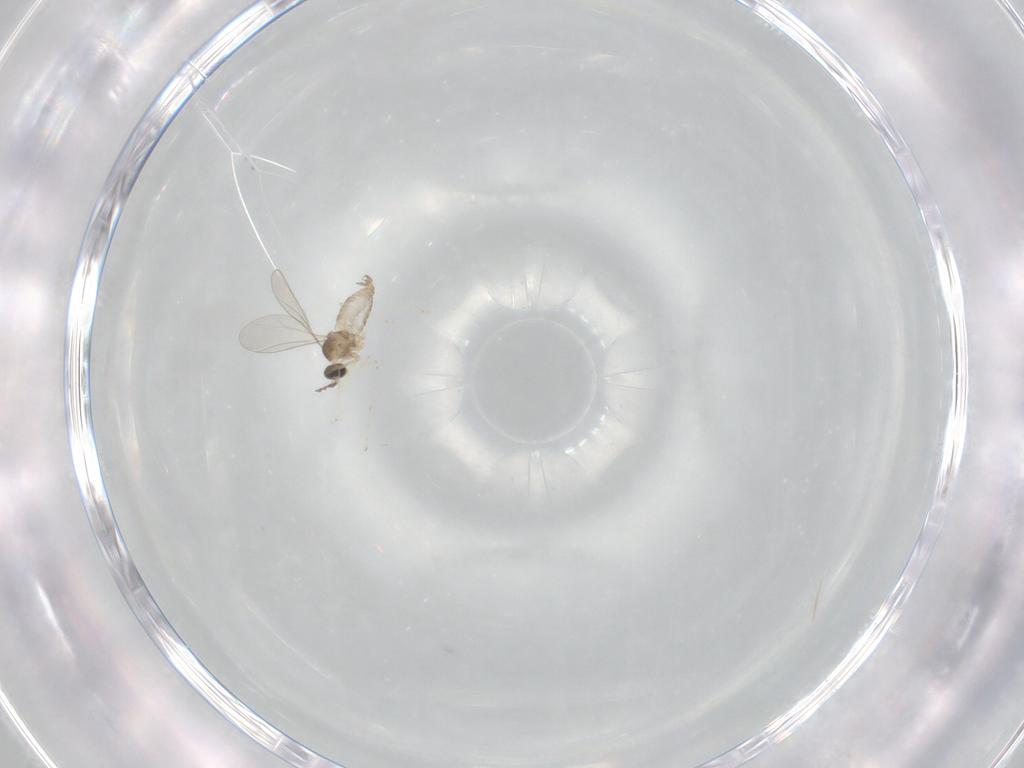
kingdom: Animalia
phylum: Arthropoda
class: Insecta
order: Diptera
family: Cecidomyiidae
